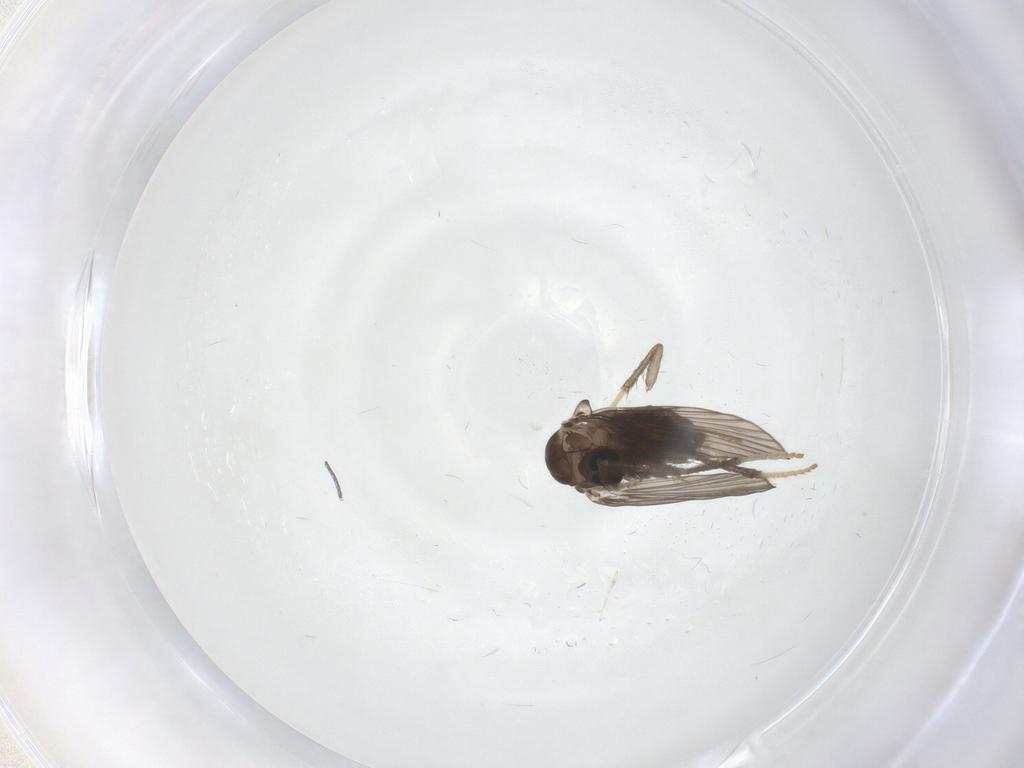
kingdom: Animalia
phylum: Arthropoda
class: Insecta
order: Diptera
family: Psychodidae
